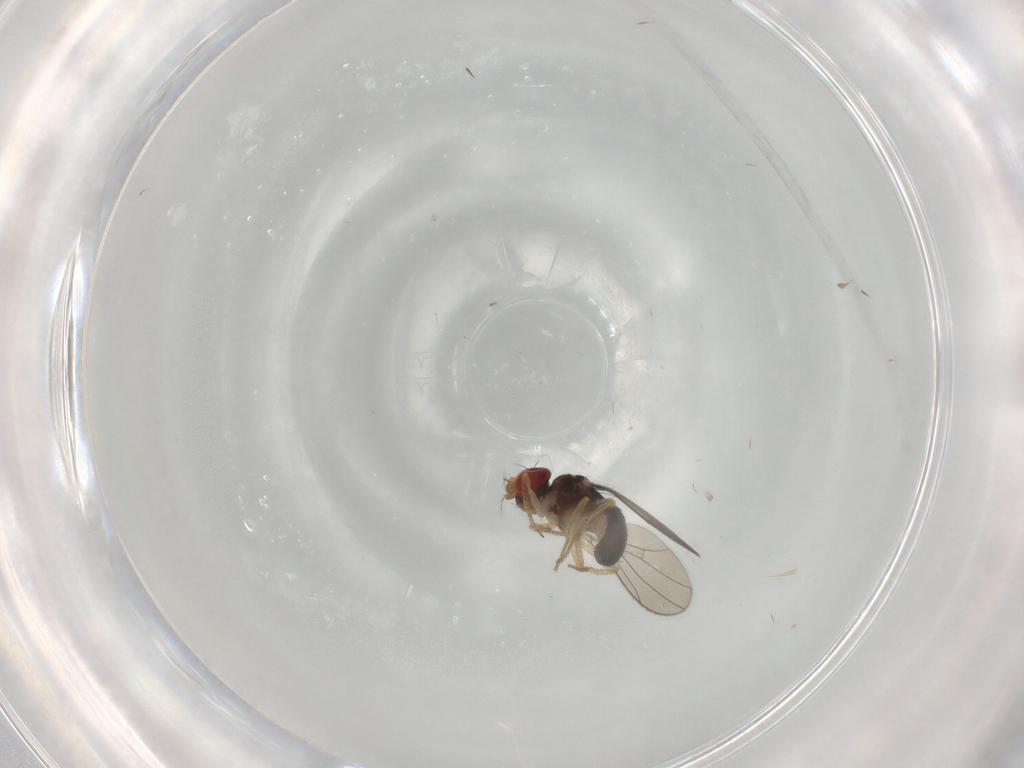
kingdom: Animalia
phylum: Arthropoda
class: Insecta
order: Diptera
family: Drosophilidae
